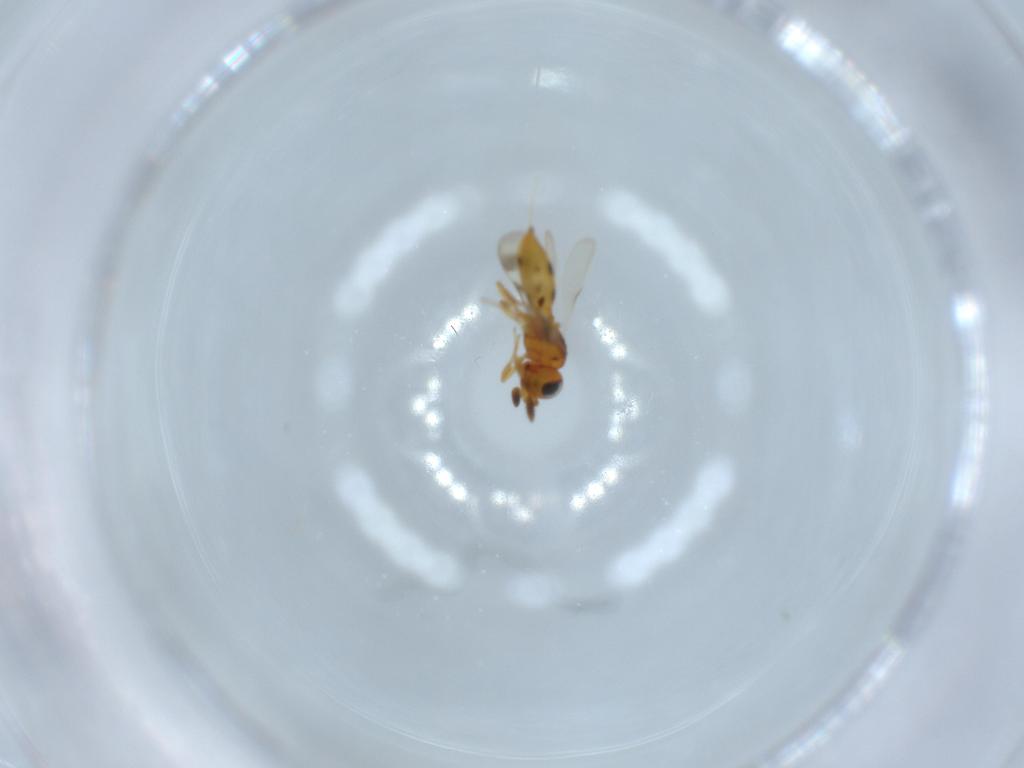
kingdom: Animalia
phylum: Arthropoda
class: Insecta
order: Hymenoptera
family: Scelionidae
